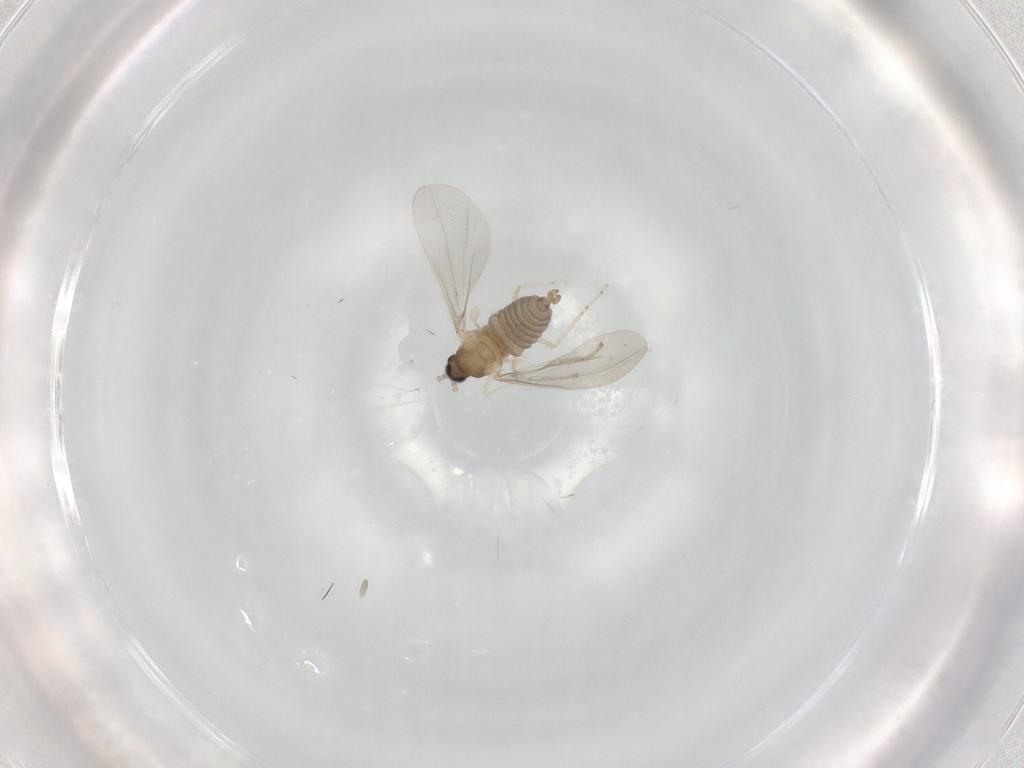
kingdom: Animalia
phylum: Arthropoda
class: Insecta
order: Diptera
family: Sciaridae
